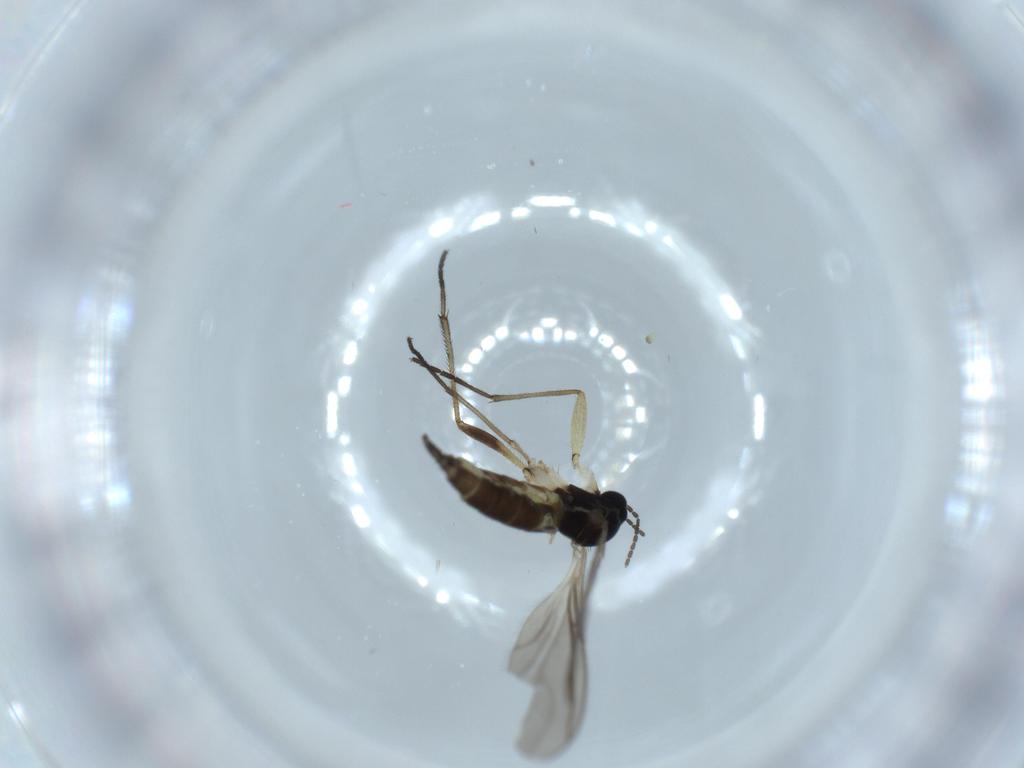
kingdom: Animalia
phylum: Arthropoda
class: Insecta
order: Diptera
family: Sciaridae
